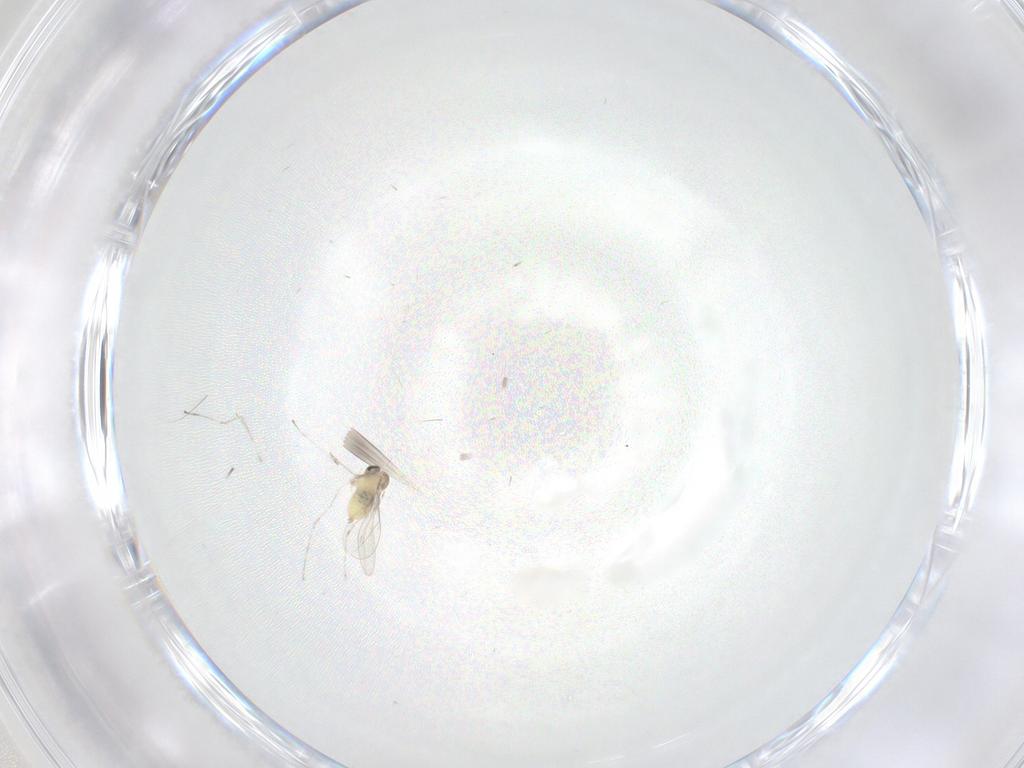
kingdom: Animalia
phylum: Arthropoda
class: Insecta
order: Diptera
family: Cecidomyiidae
